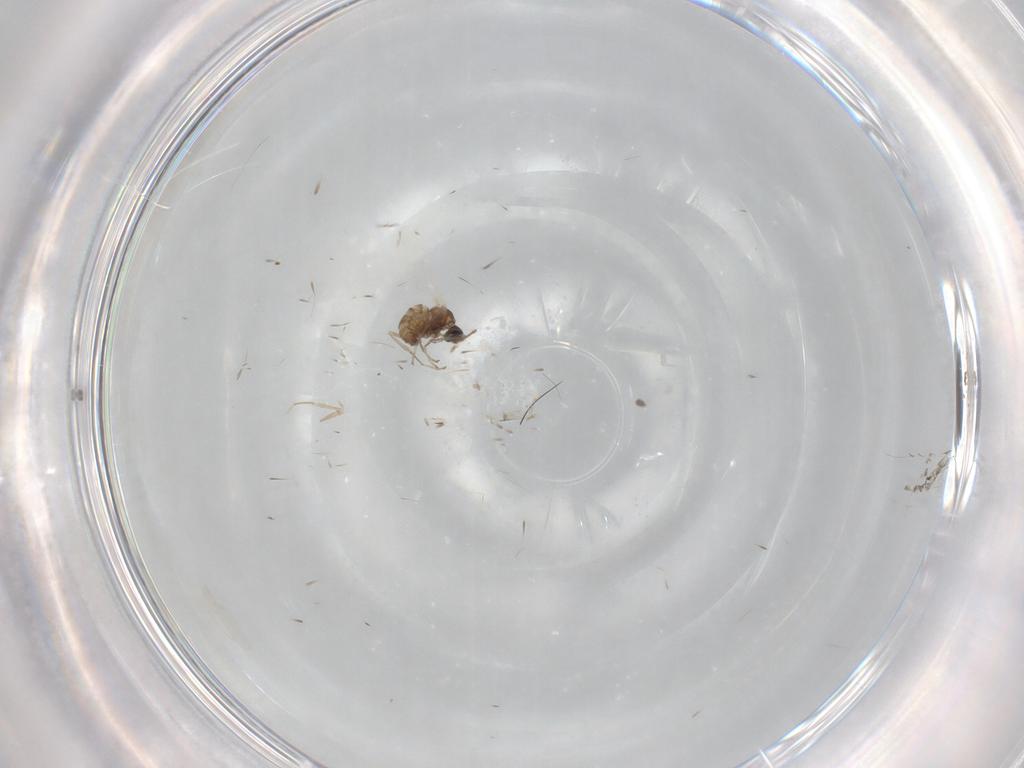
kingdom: Animalia
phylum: Arthropoda
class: Insecta
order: Diptera
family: Cecidomyiidae
